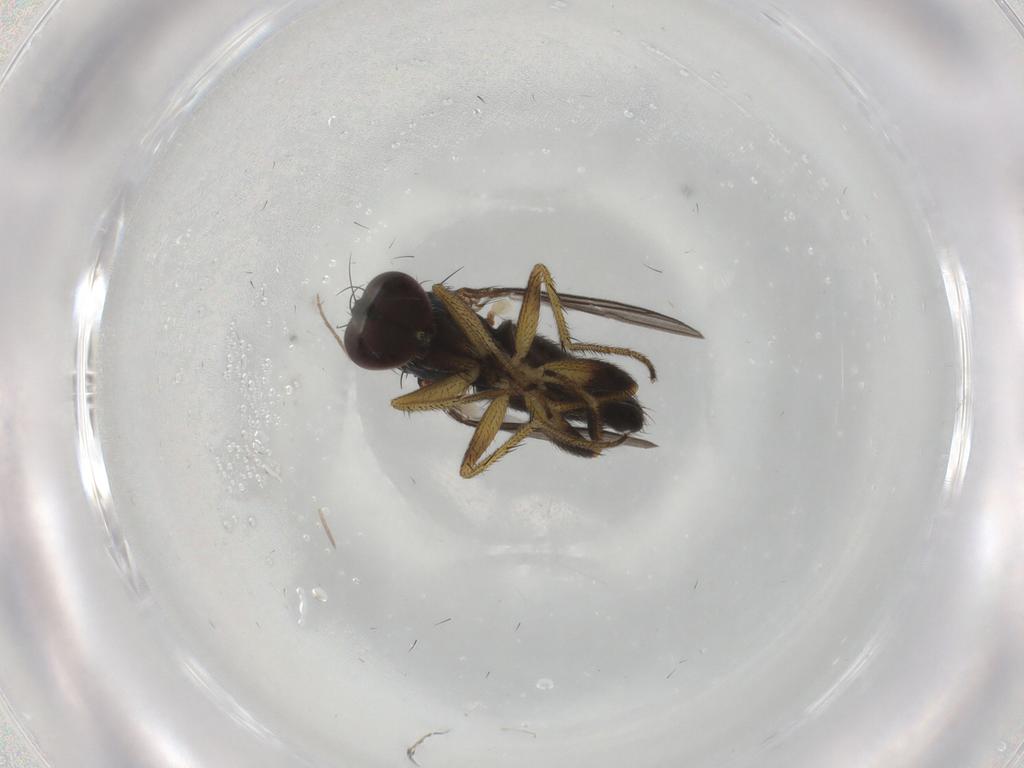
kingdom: Animalia
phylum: Arthropoda
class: Insecta
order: Diptera
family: Dolichopodidae
